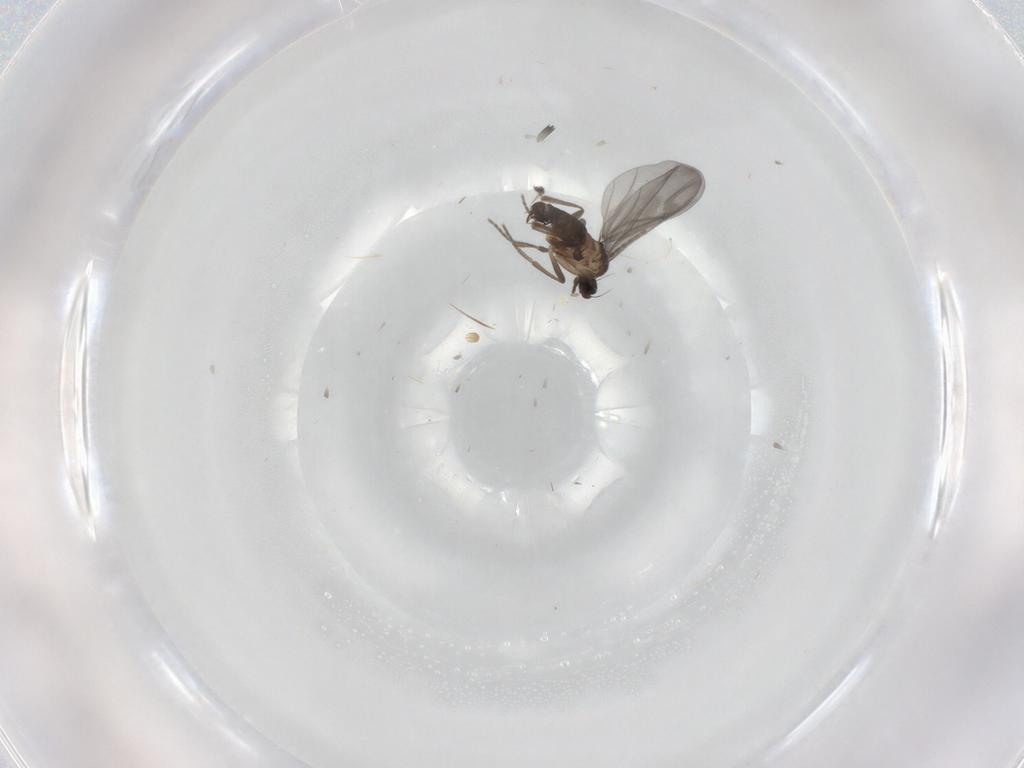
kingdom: Animalia
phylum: Arthropoda
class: Insecta
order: Diptera
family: Phoridae
